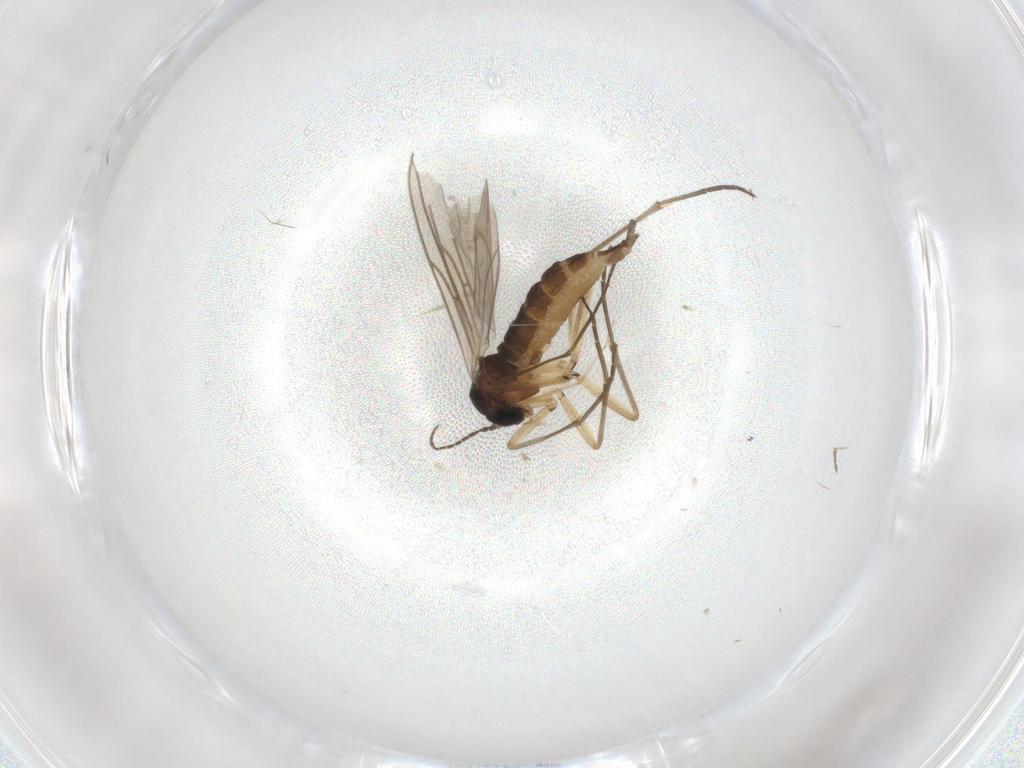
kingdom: Animalia
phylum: Arthropoda
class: Insecta
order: Diptera
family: Sciaridae
